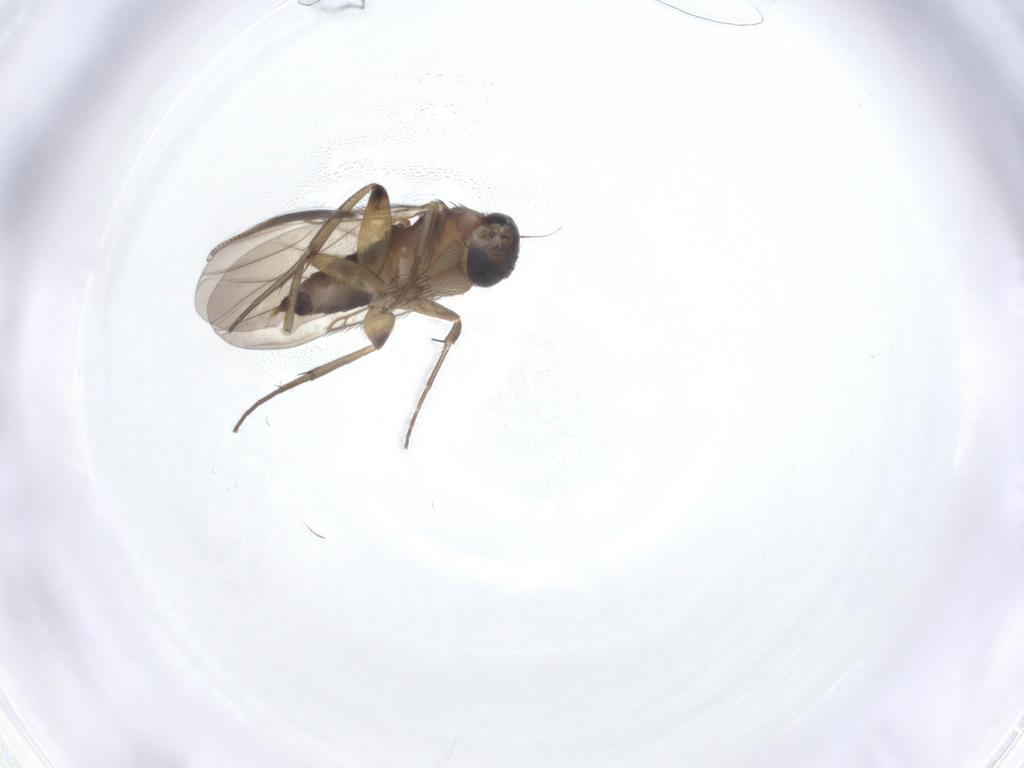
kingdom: Animalia
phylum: Arthropoda
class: Insecta
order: Diptera
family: Phoridae
